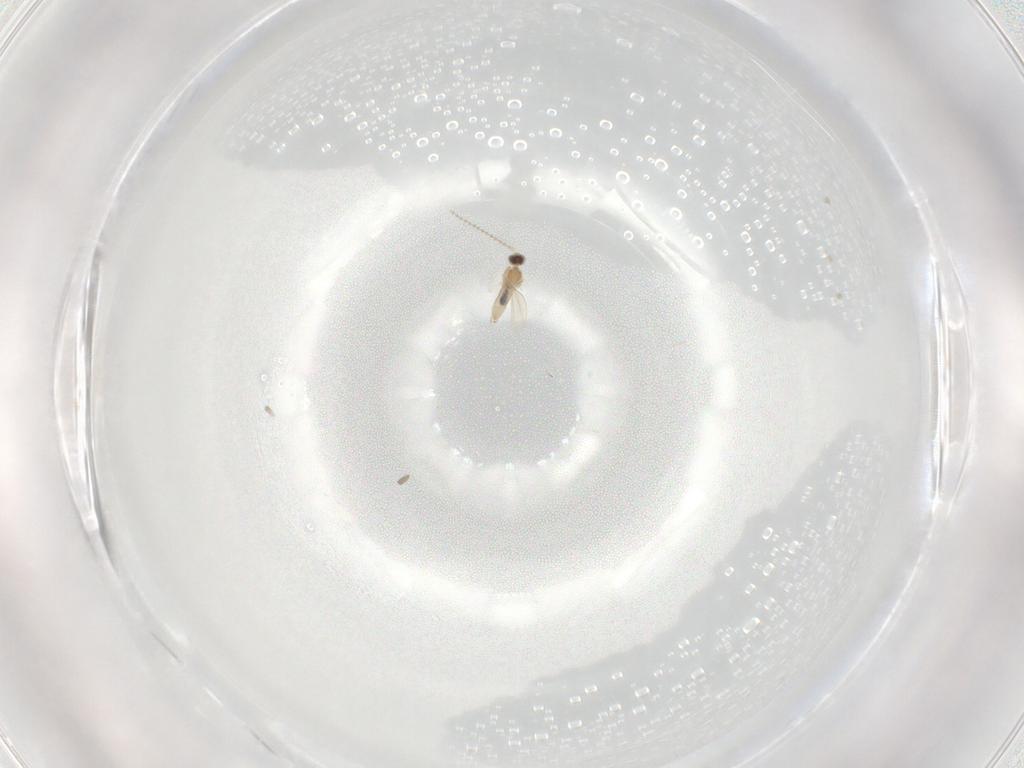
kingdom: Animalia
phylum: Arthropoda
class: Insecta
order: Diptera
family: Cecidomyiidae
